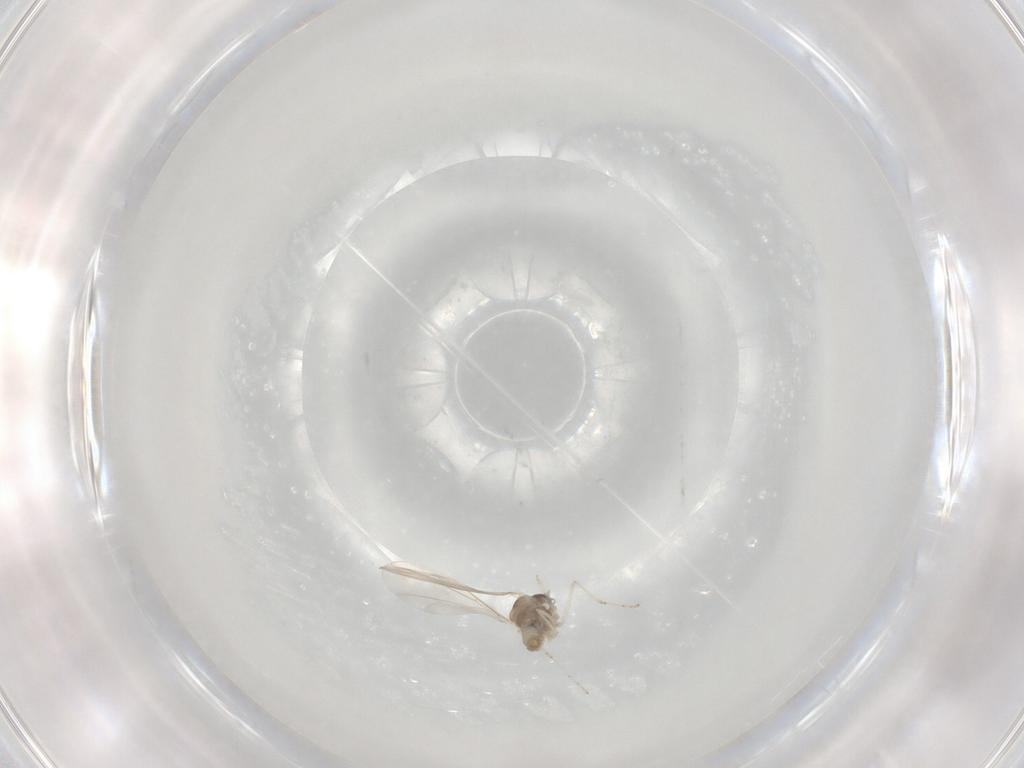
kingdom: Animalia
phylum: Arthropoda
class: Insecta
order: Diptera
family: Cecidomyiidae
